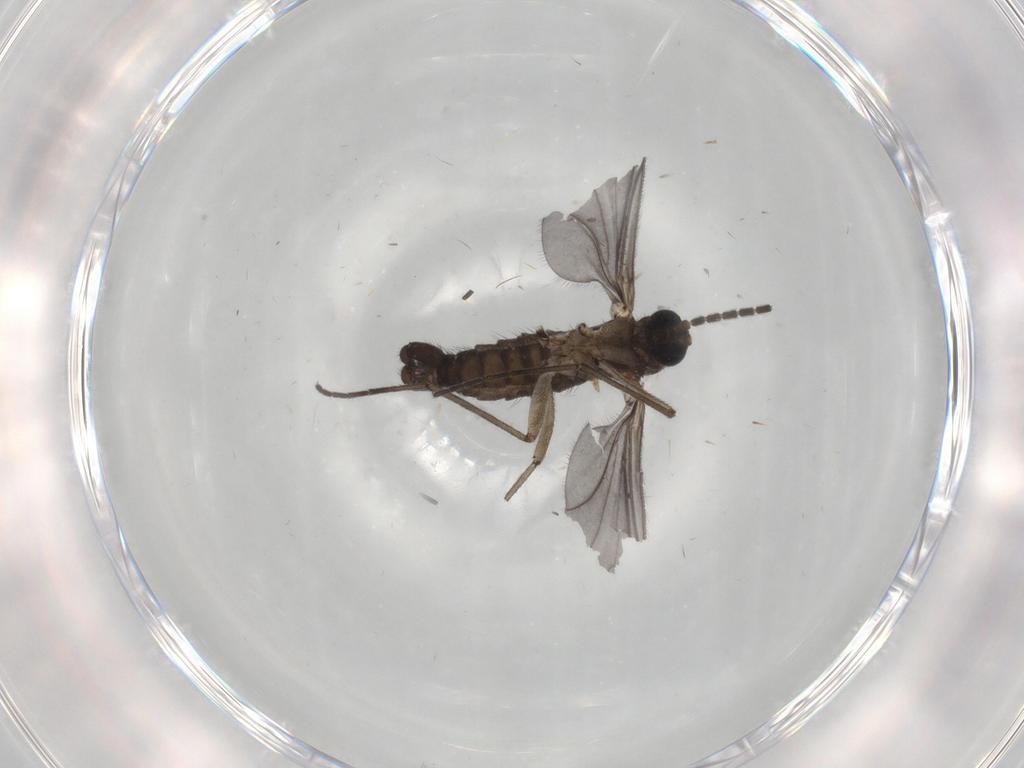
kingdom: Animalia
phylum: Arthropoda
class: Insecta
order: Diptera
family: Sciaridae
